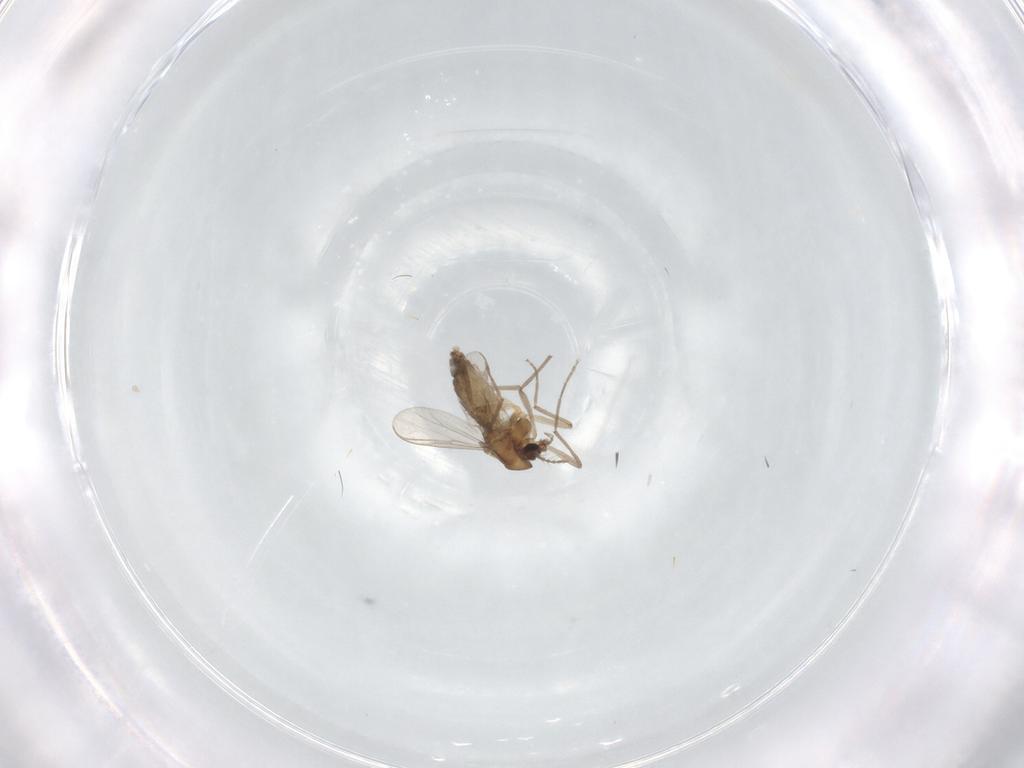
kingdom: Animalia
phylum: Arthropoda
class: Insecta
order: Diptera
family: Chironomidae
